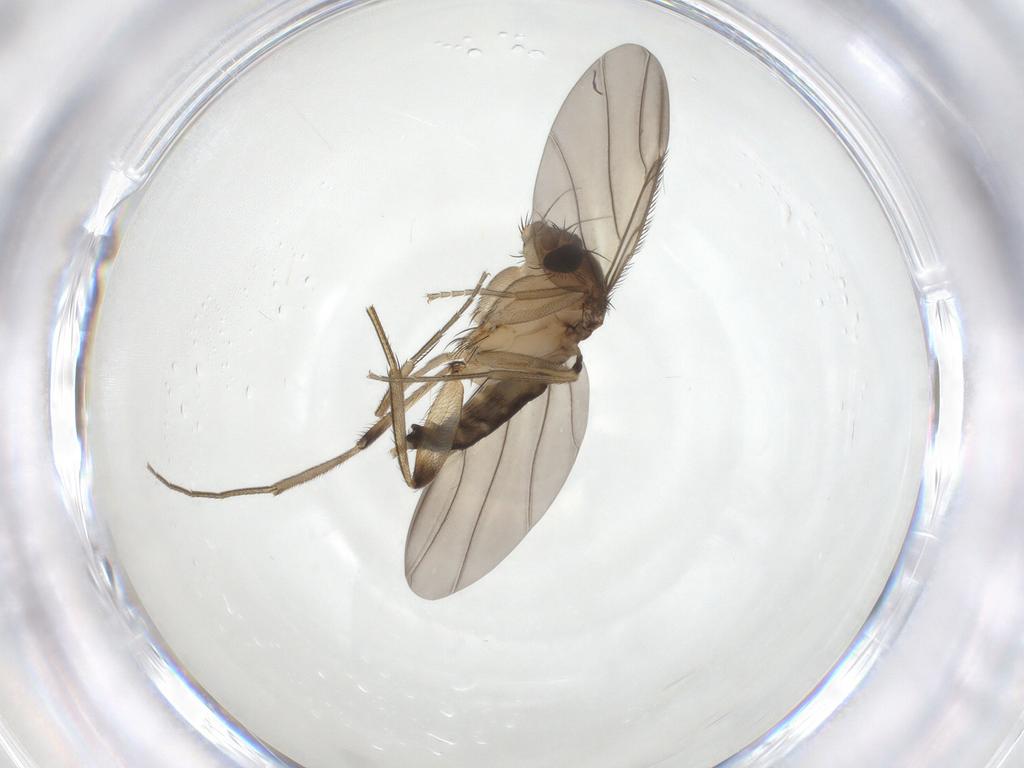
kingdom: Animalia
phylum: Arthropoda
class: Insecta
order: Diptera
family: Phoridae
